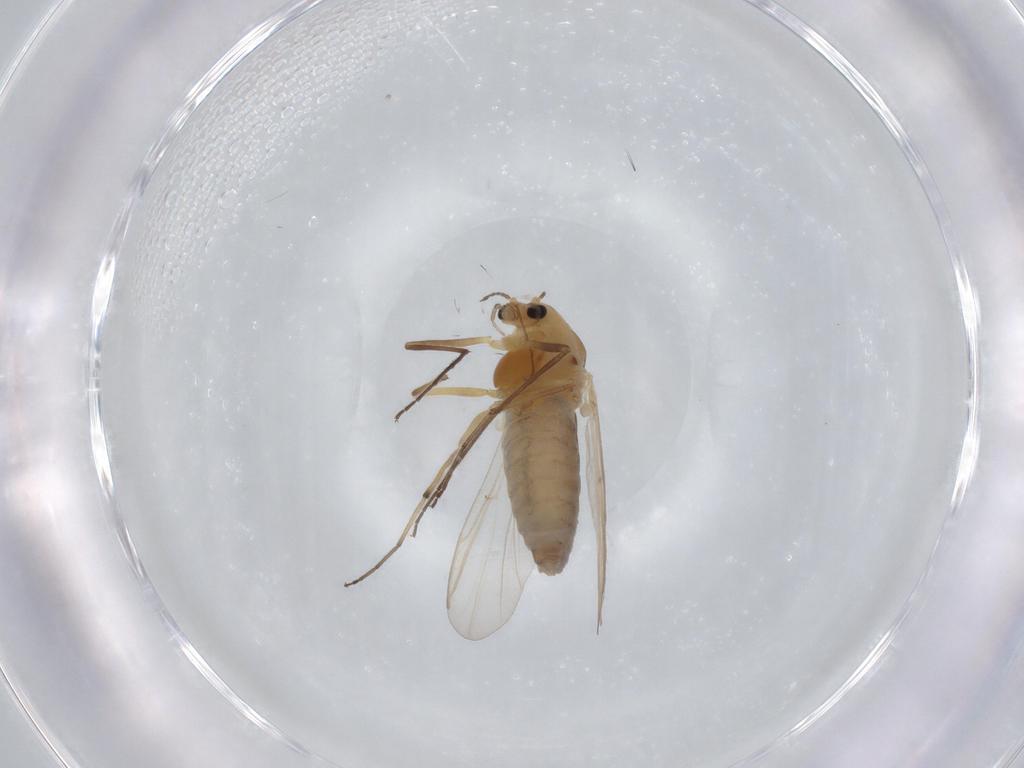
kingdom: Animalia
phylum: Arthropoda
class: Insecta
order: Diptera
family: Chironomidae
